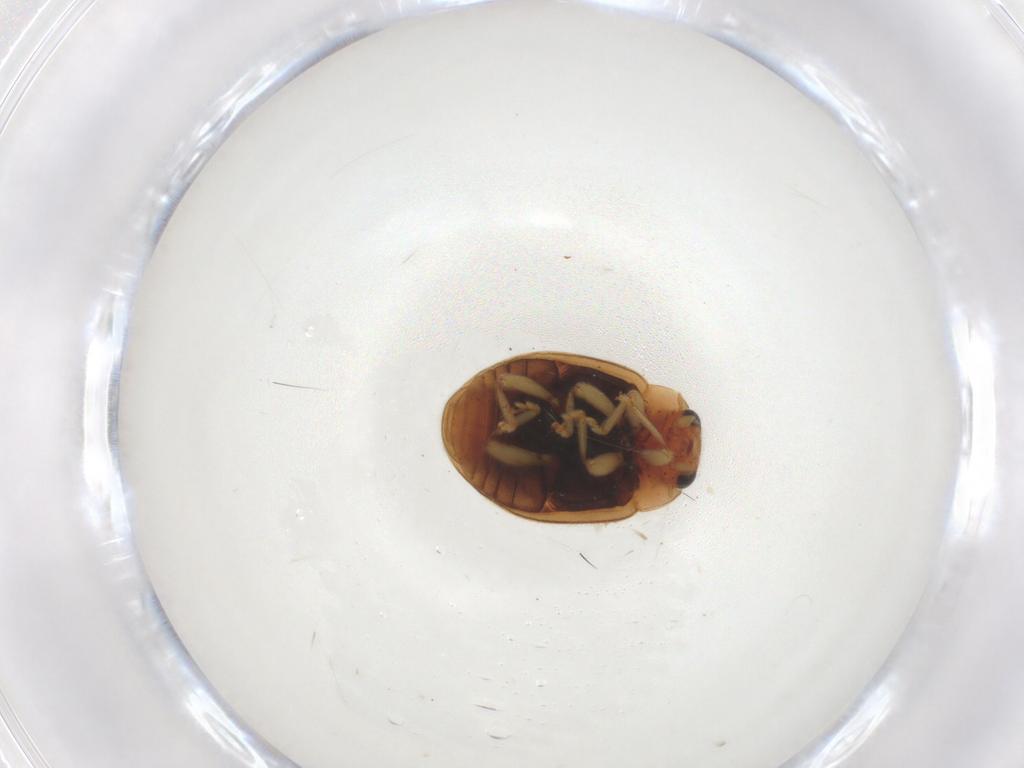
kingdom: Animalia
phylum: Arthropoda
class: Insecta
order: Coleoptera
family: Coccinellidae
